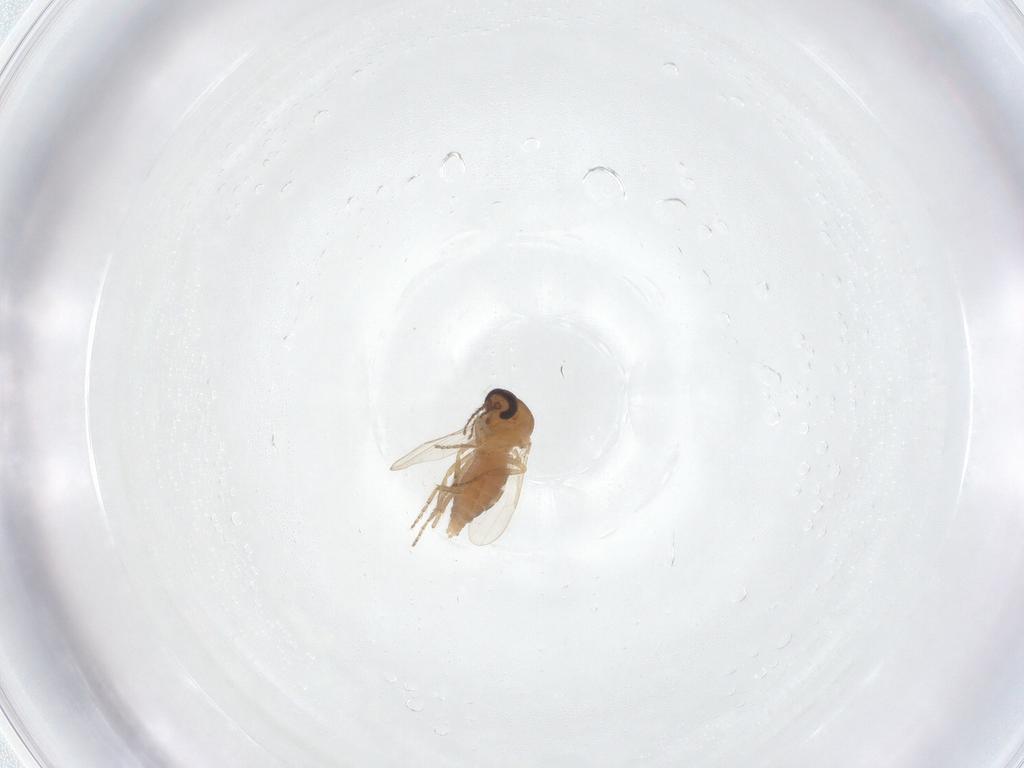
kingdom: Animalia
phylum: Arthropoda
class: Insecta
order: Diptera
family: Ceratopogonidae
